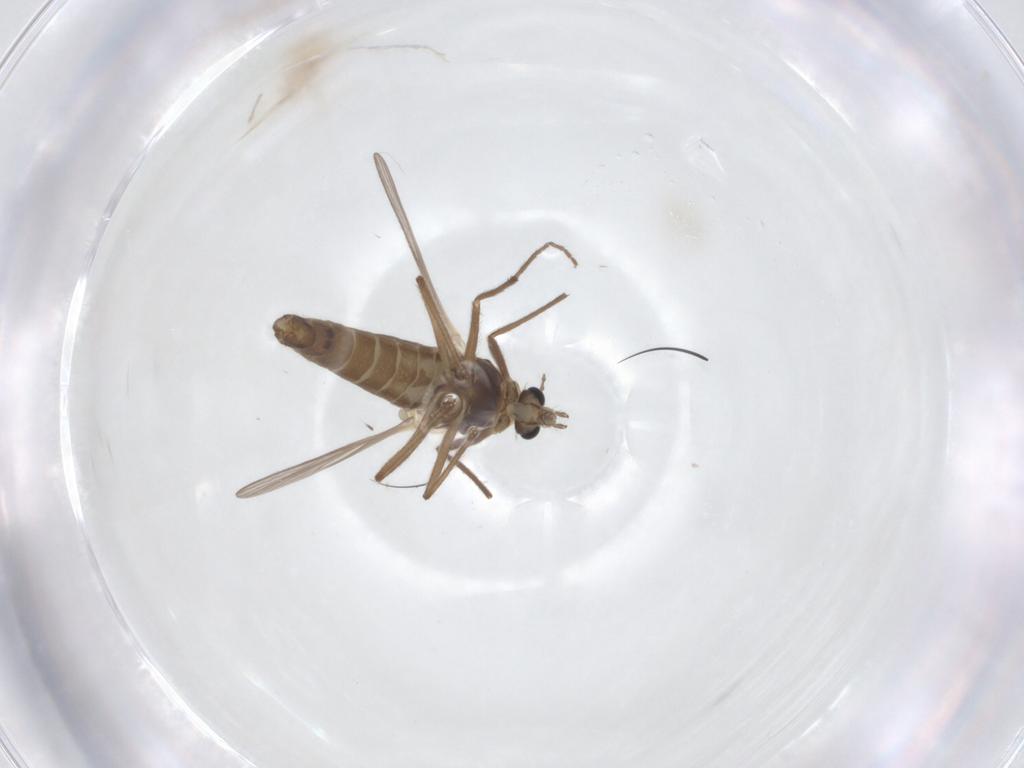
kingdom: Animalia
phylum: Arthropoda
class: Insecta
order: Diptera
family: Chironomidae
